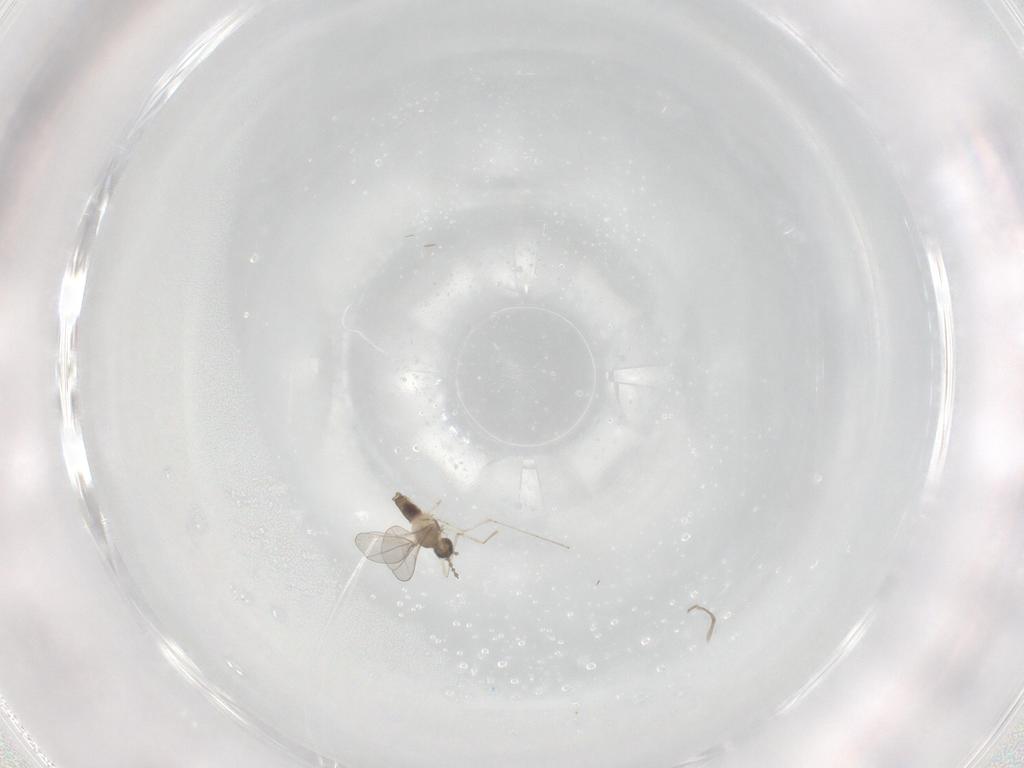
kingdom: Animalia
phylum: Arthropoda
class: Insecta
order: Diptera
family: Cecidomyiidae
